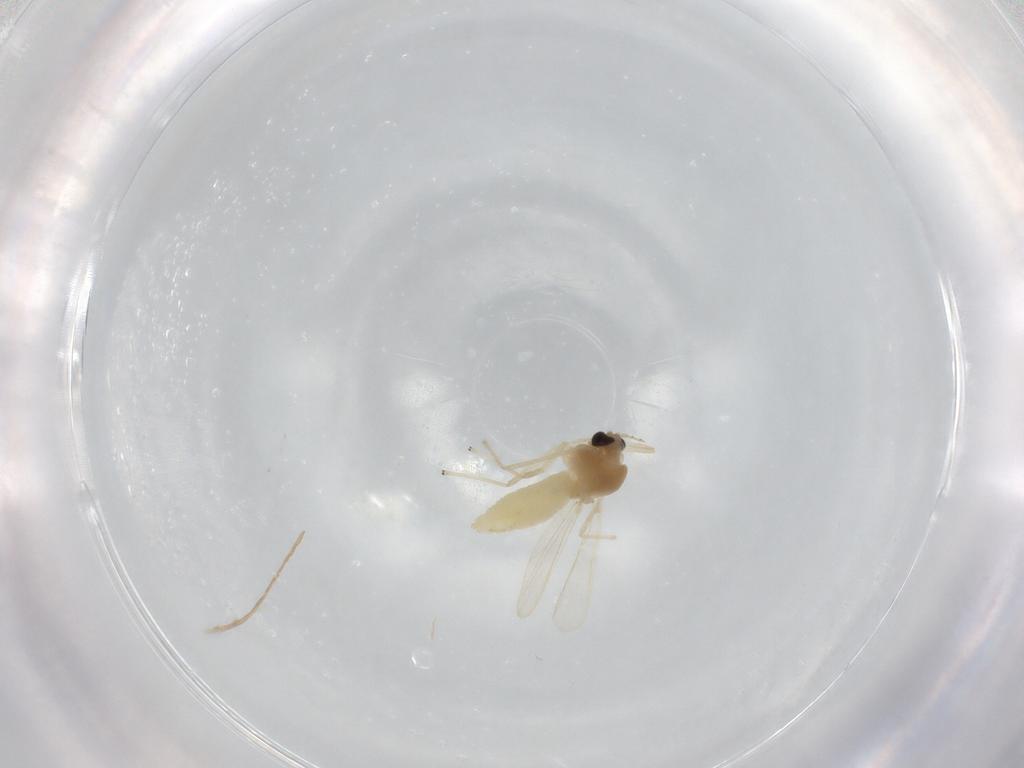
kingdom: Animalia
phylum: Arthropoda
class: Insecta
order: Diptera
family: Chironomidae
